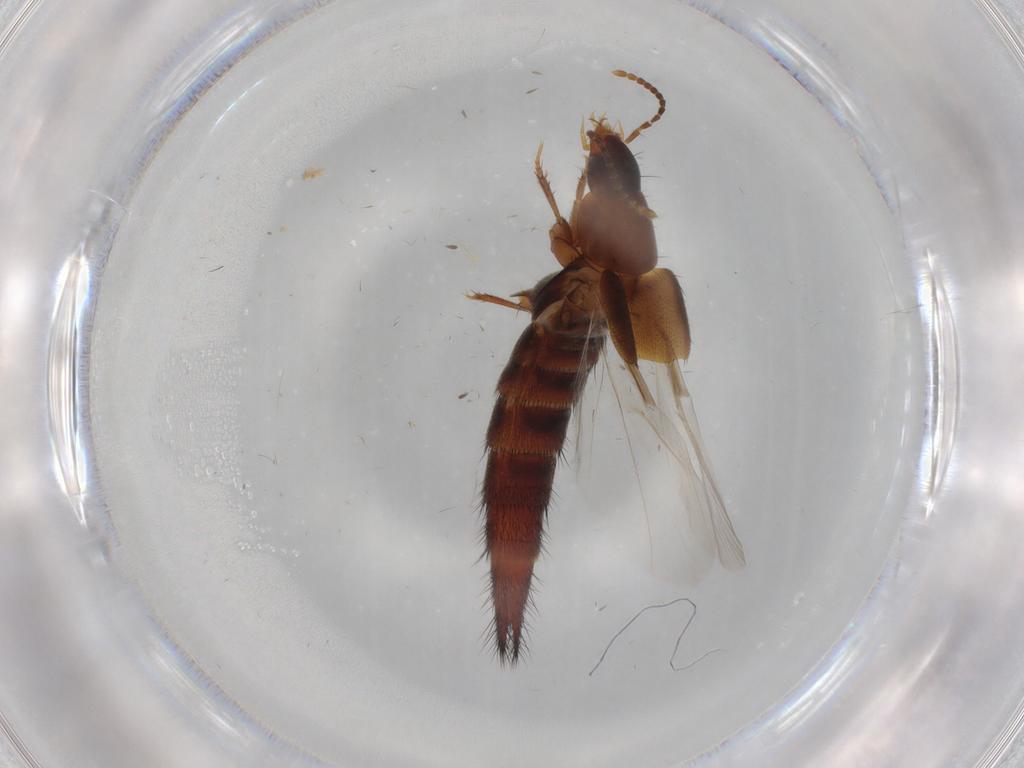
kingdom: Animalia
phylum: Arthropoda
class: Insecta
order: Coleoptera
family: Staphylinidae
